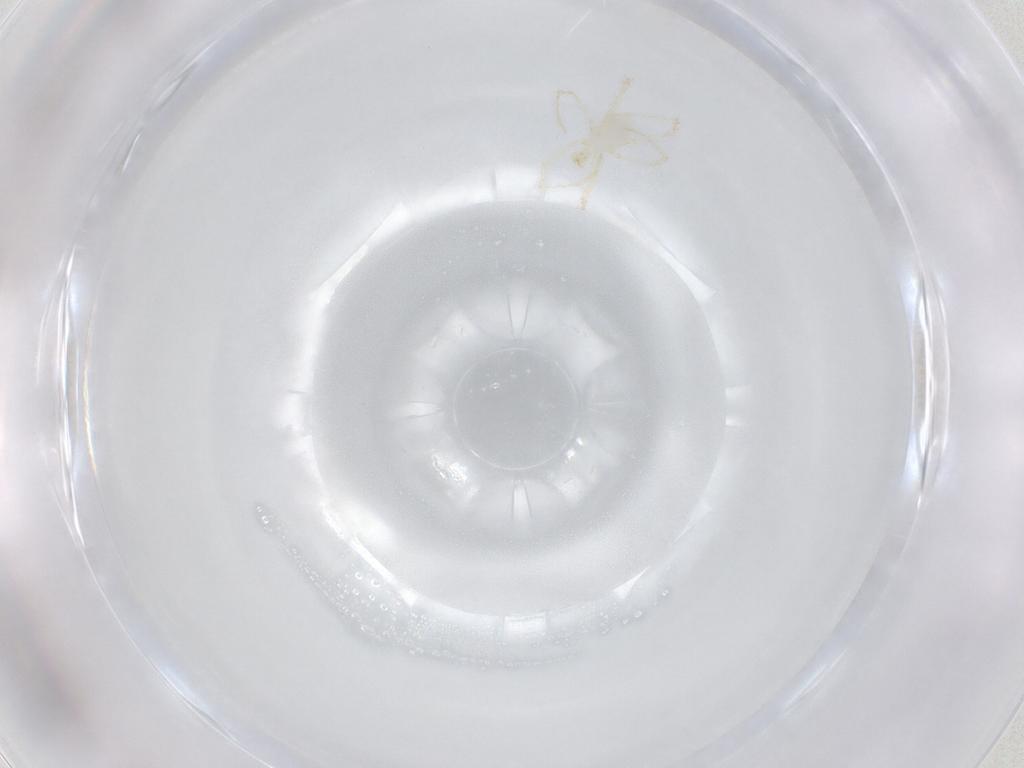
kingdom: Animalia
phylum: Arthropoda
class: Arachnida
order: Trombidiformes
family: Erythraeidae
